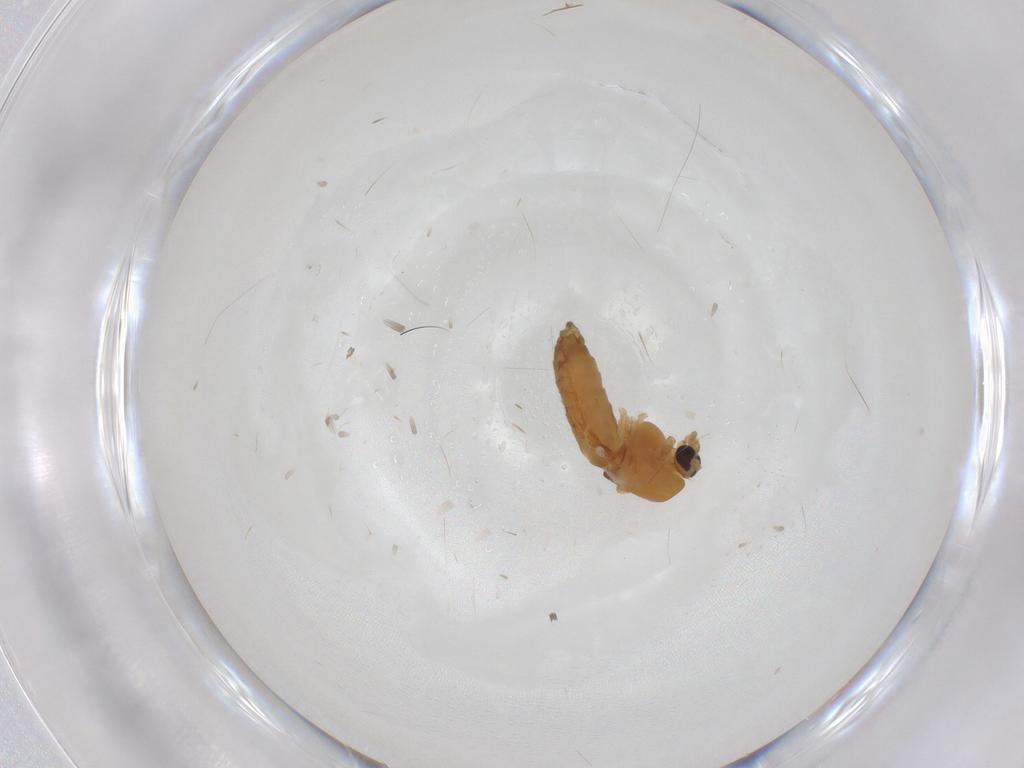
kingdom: Animalia
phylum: Arthropoda
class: Insecta
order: Diptera
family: Chironomidae
